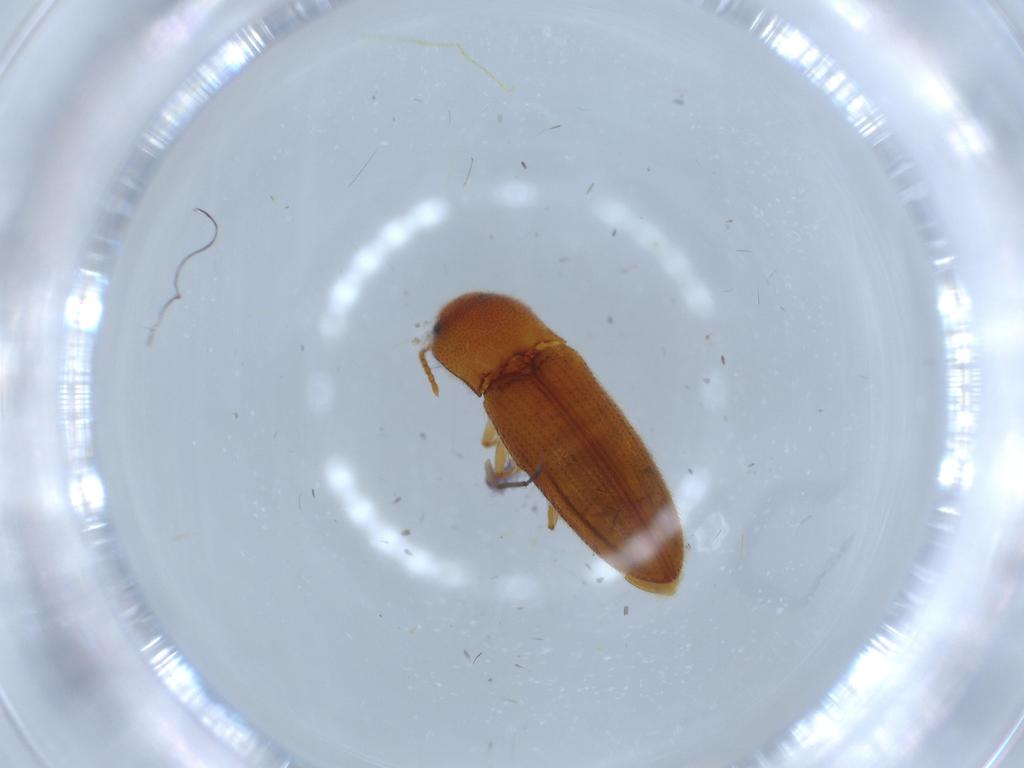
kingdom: Animalia
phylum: Arthropoda
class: Insecta
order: Coleoptera
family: Elateridae
